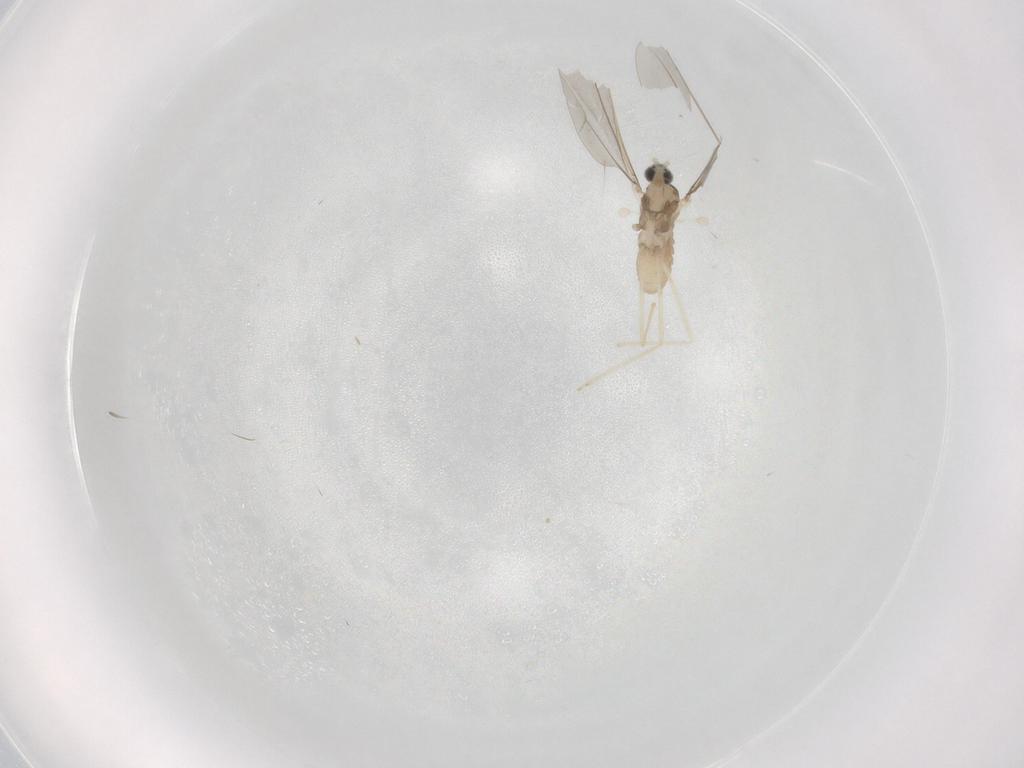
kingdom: Animalia
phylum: Arthropoda
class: Insecta
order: Diptera
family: Cecidomyiidae
